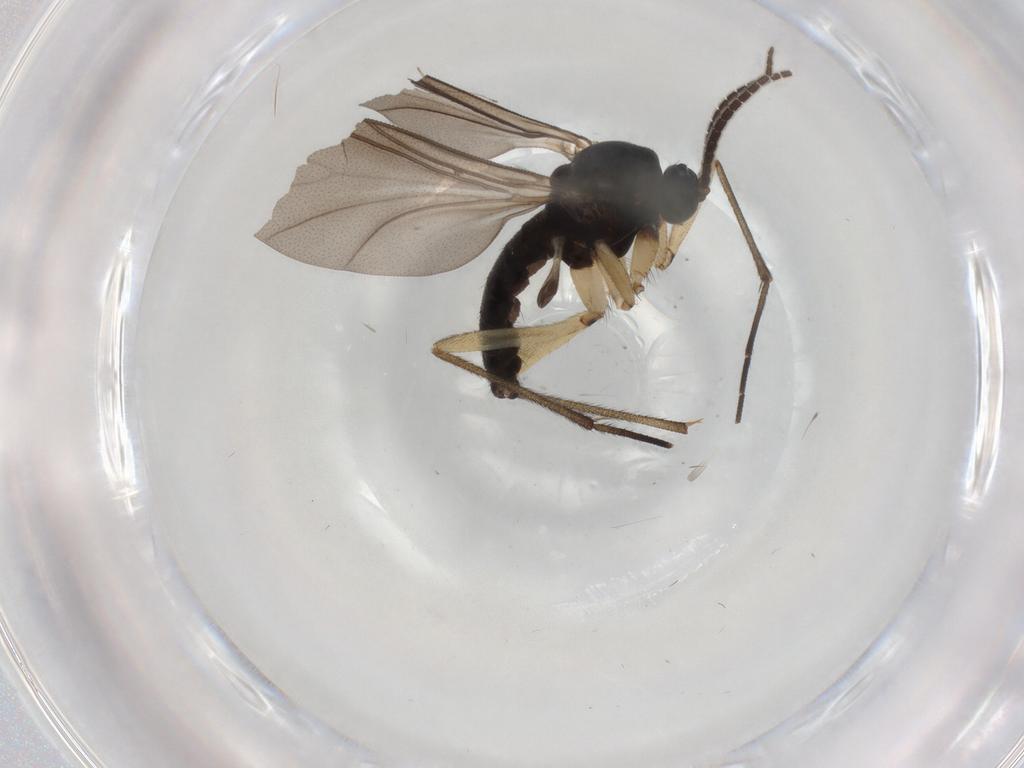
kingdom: Animalia
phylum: Arthropoda
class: Insecta
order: Diptera
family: Sciaridae
